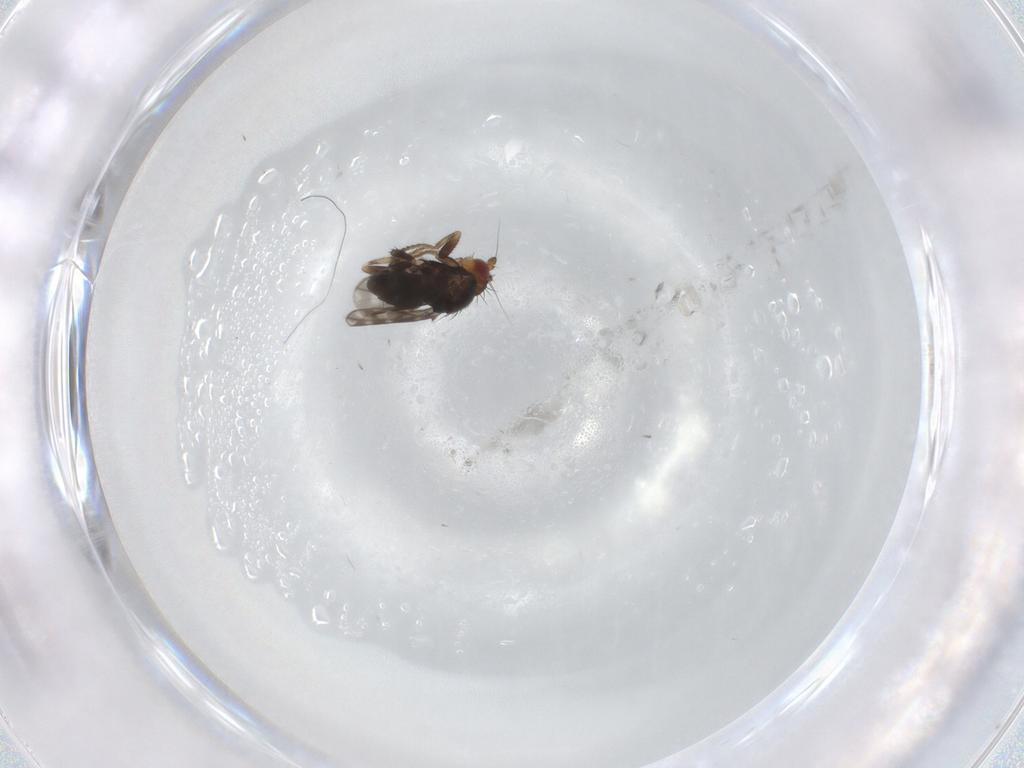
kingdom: Animalia
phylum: Arthropoda
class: Insecta
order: Diptera
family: Sphaeroceridae
